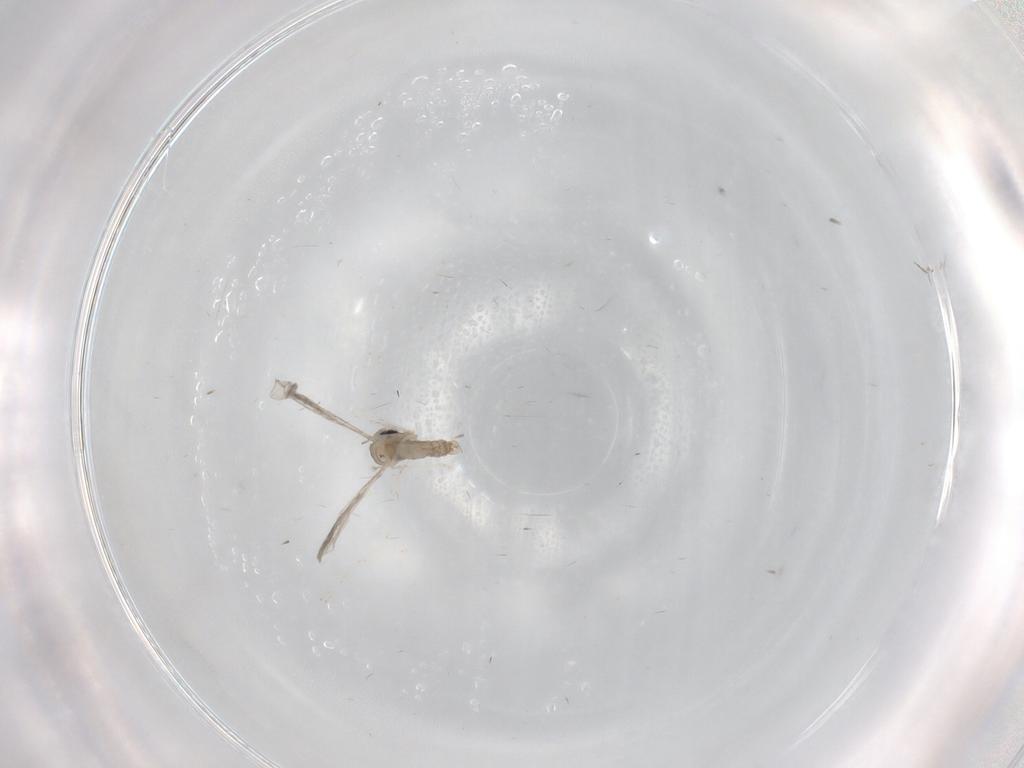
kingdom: Animalia
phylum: Arthropoda
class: Insecta
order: Diptera
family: Cecidomyiidae
